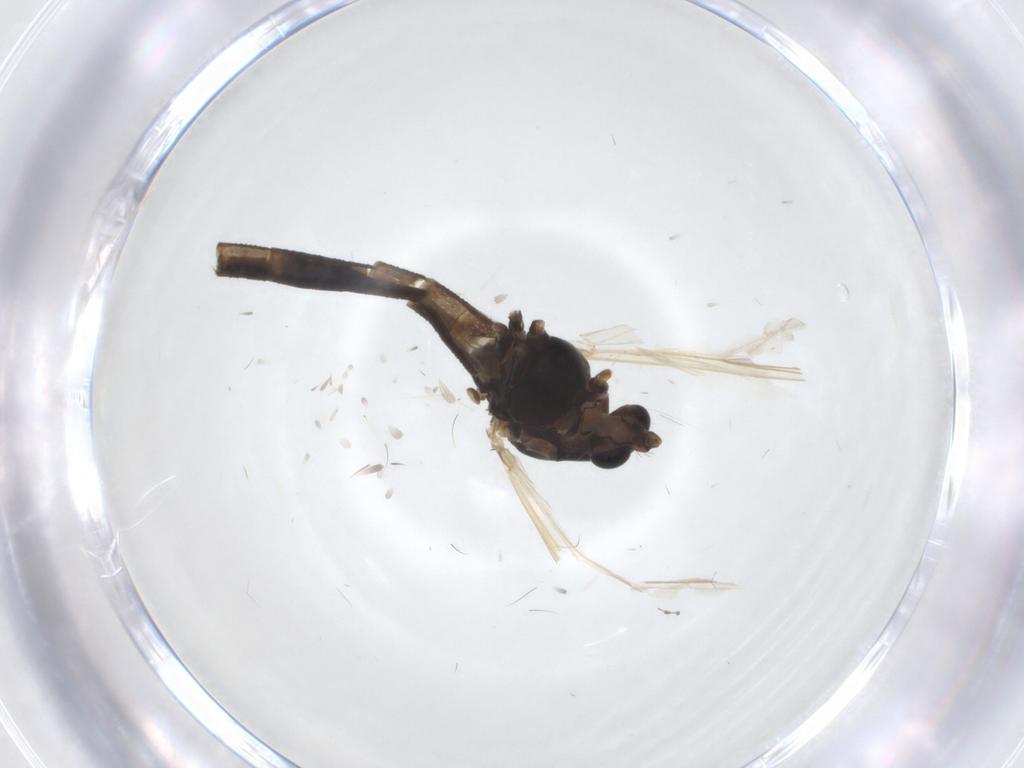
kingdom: Animalia
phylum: Arthropoda
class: Insecta
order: Diptera
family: Chironomidae
